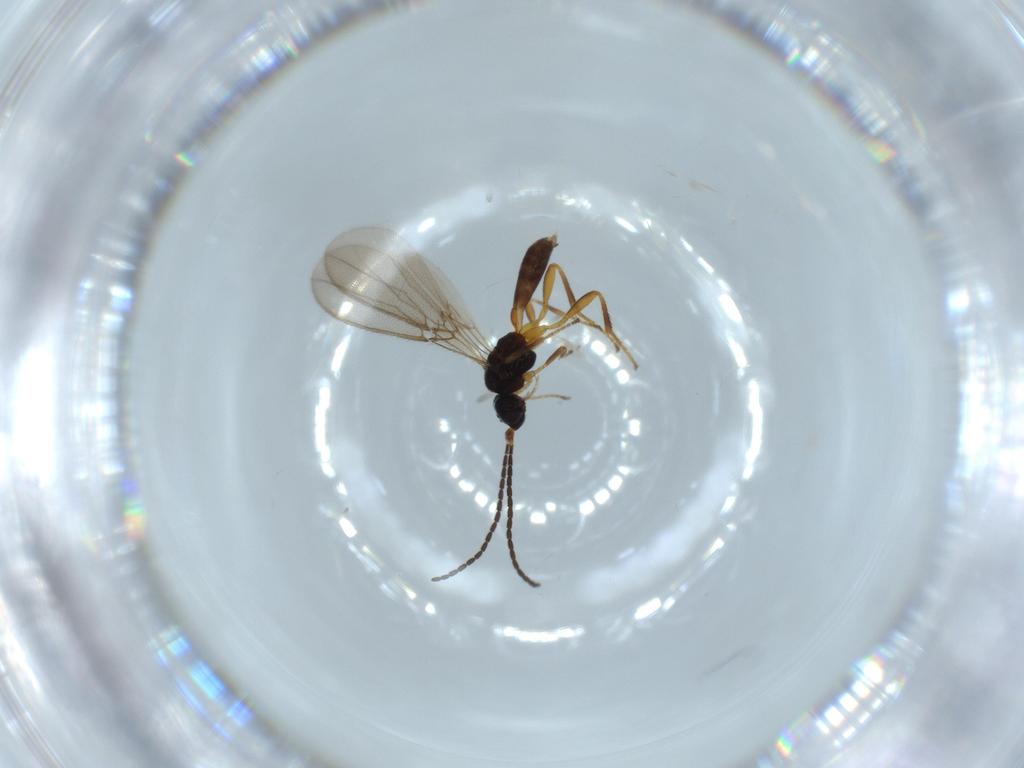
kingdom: Animalia
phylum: Arthropoda
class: Insecta
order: Hymenoptera
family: Braconidae
